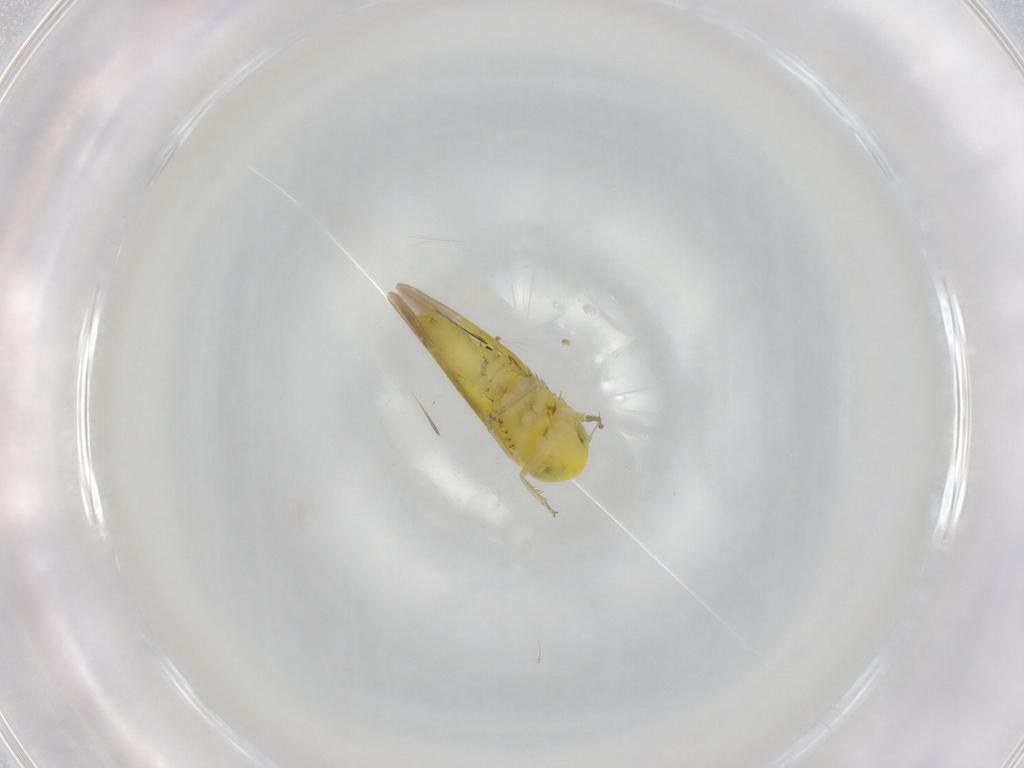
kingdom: Animalia
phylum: Arthropoda
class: Insecta
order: Hemiptera
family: Cicadellidae
